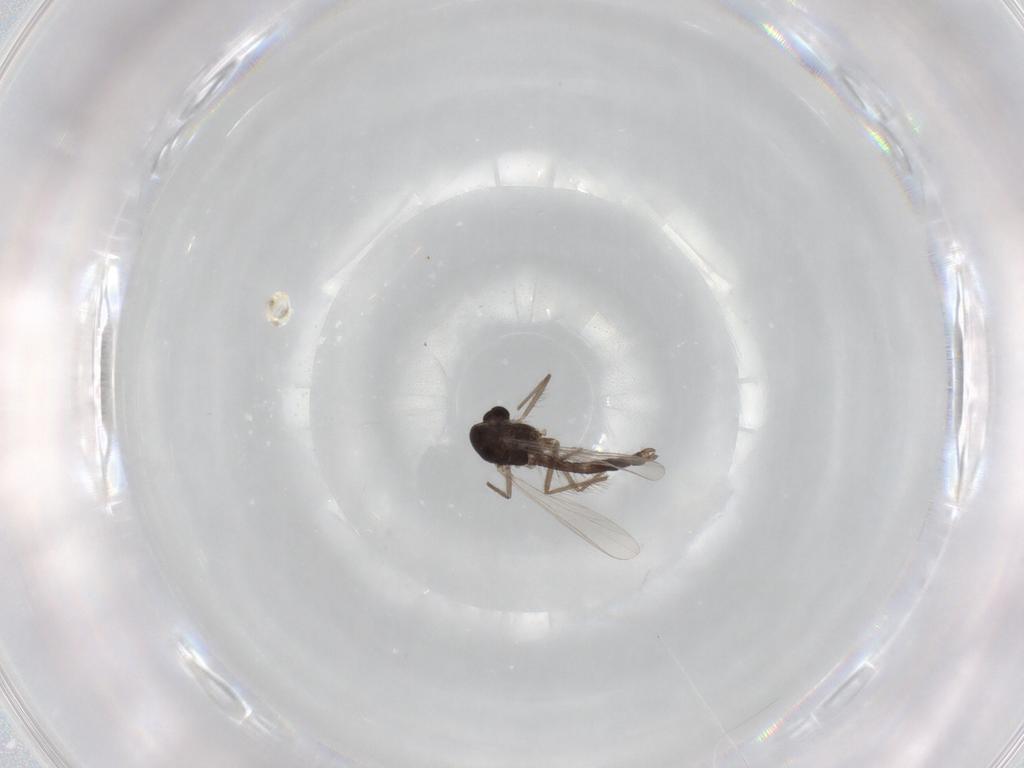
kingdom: Animalia
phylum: Arthropoda
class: Insecta
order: Diptera
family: Chironomidae
